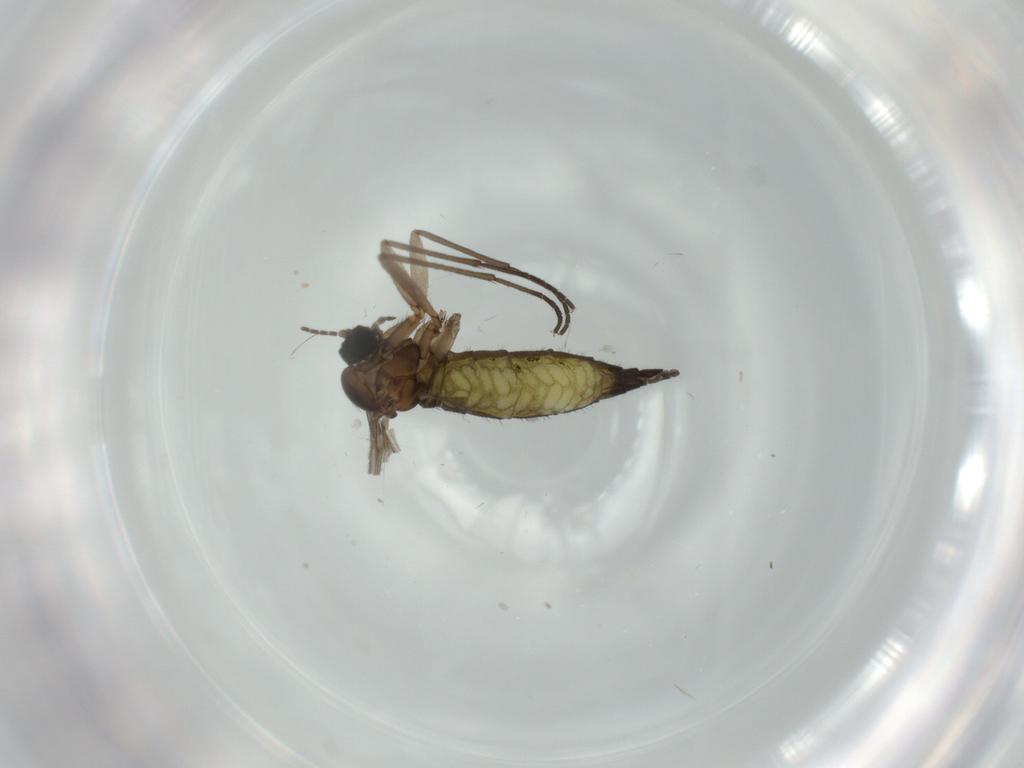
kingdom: Animalia
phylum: Arthropoda
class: Insecta
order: Diptera
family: Sciaridae
